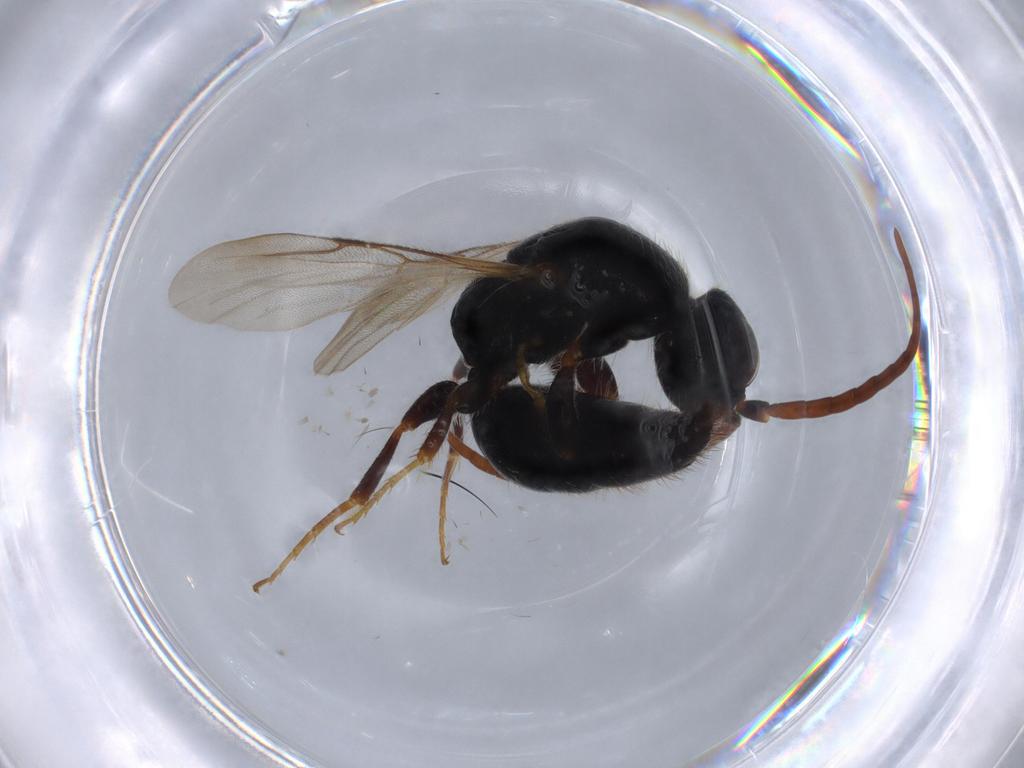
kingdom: Animalia
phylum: Arthropoda
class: Insecta
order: Hymenoptera
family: Bethylidae
